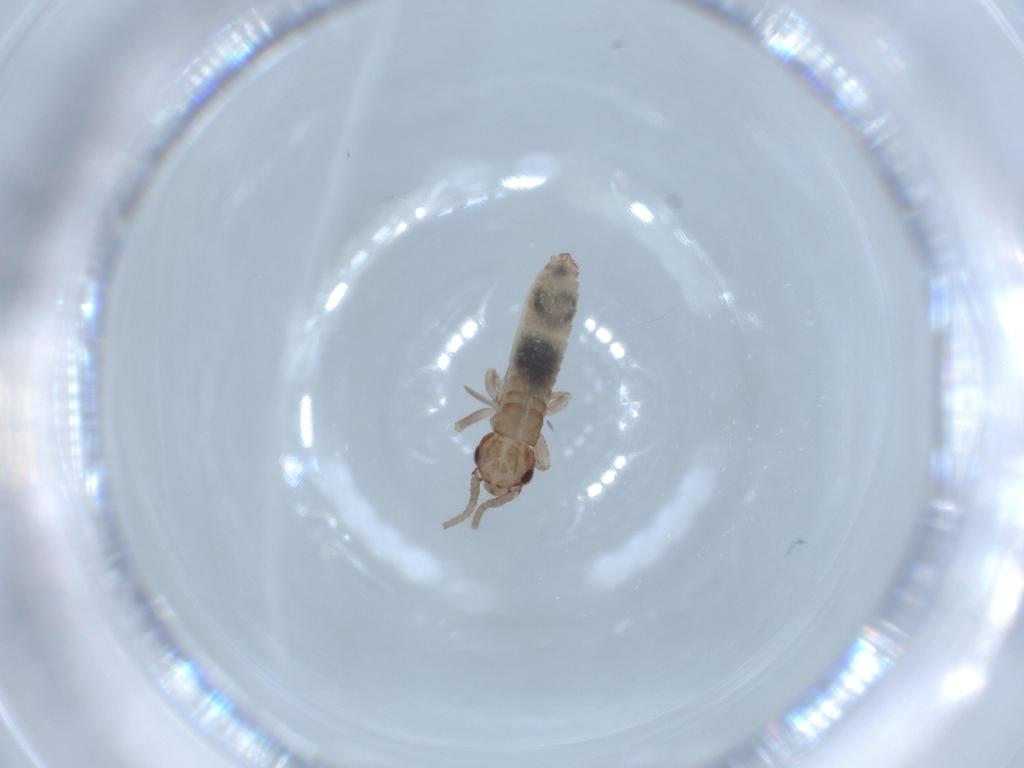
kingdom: Animalia
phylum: Arthropoda
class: Insecta
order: Orthoptera
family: Mogoplistidae
